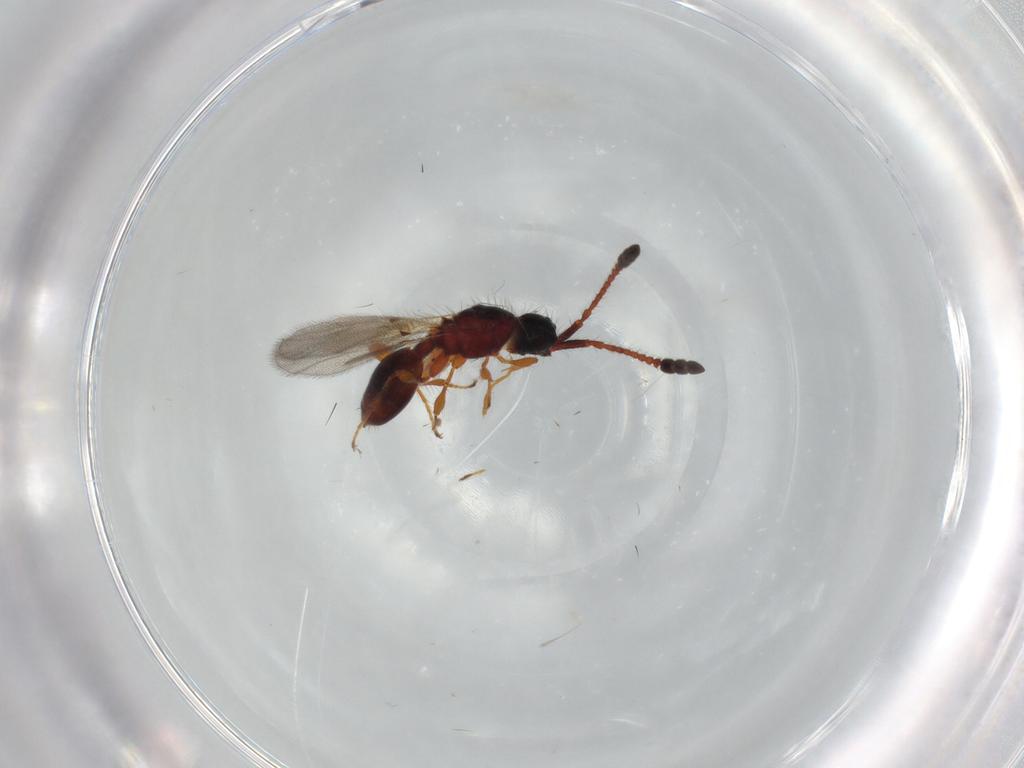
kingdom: Animalia
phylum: Arthropoda
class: Insecta
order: Hymenoptera
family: Diapriidae
